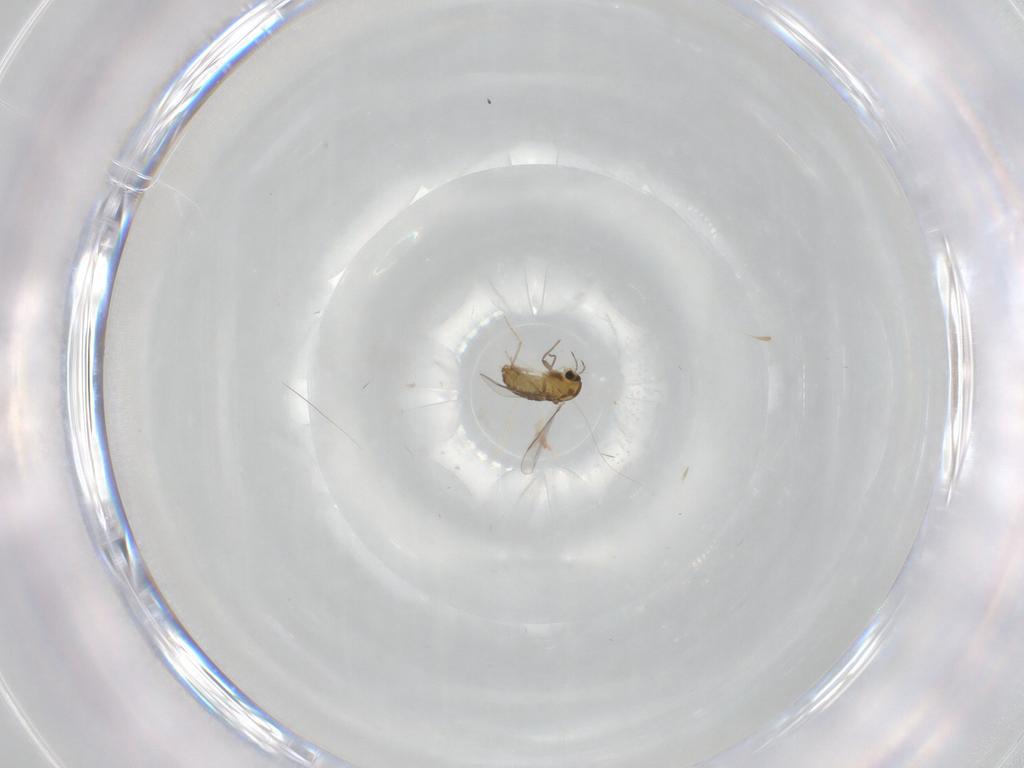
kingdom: Animalia
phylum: Arthropoda
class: Insecta
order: Diptera
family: Chironomidae
